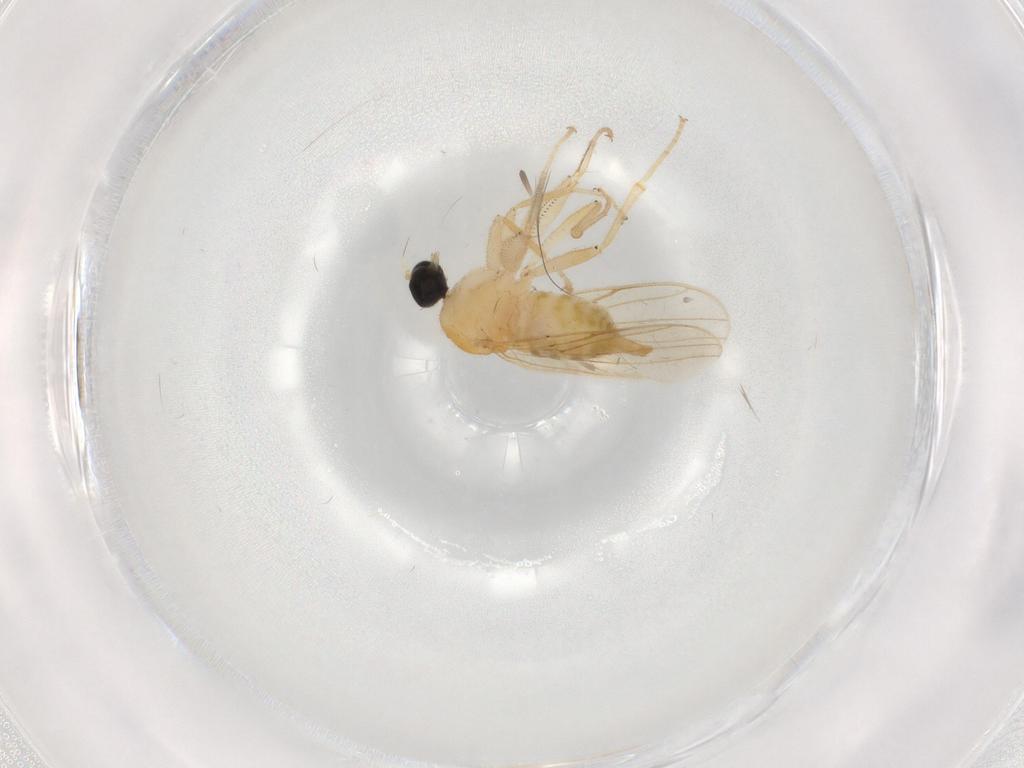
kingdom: Animalia
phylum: Arthropoda
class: Insecta
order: Diptera
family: Hybotidae
